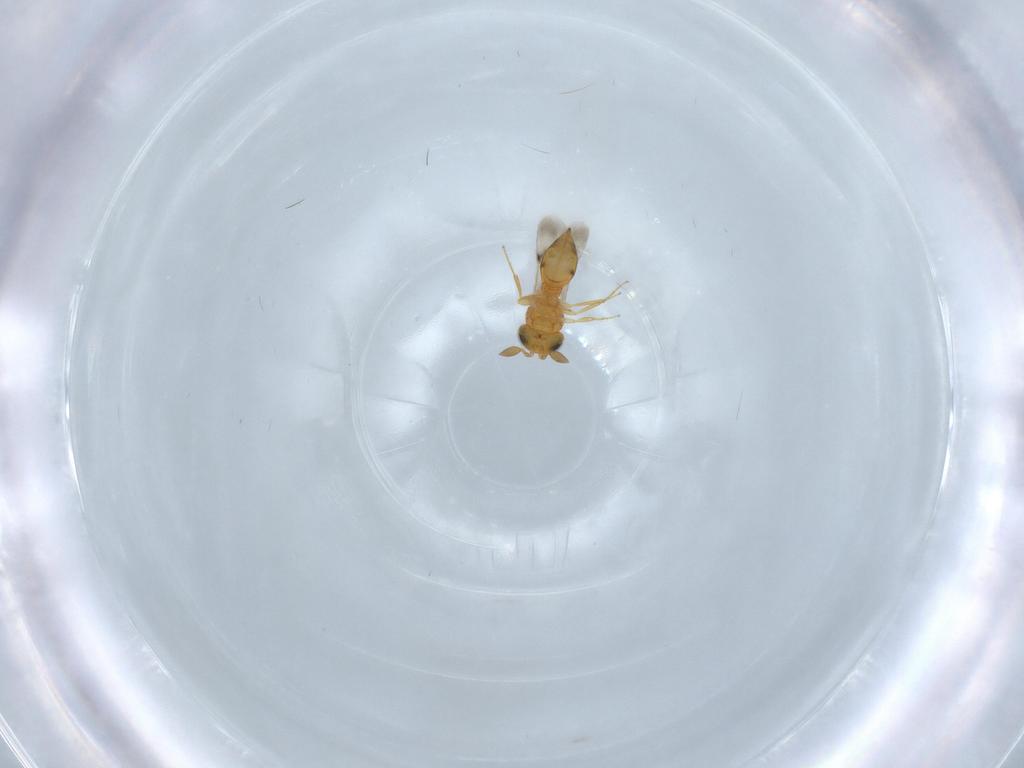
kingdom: Animalia
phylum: Arthropoda
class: Insecta
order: Hymenoptera
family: Scelionidae
